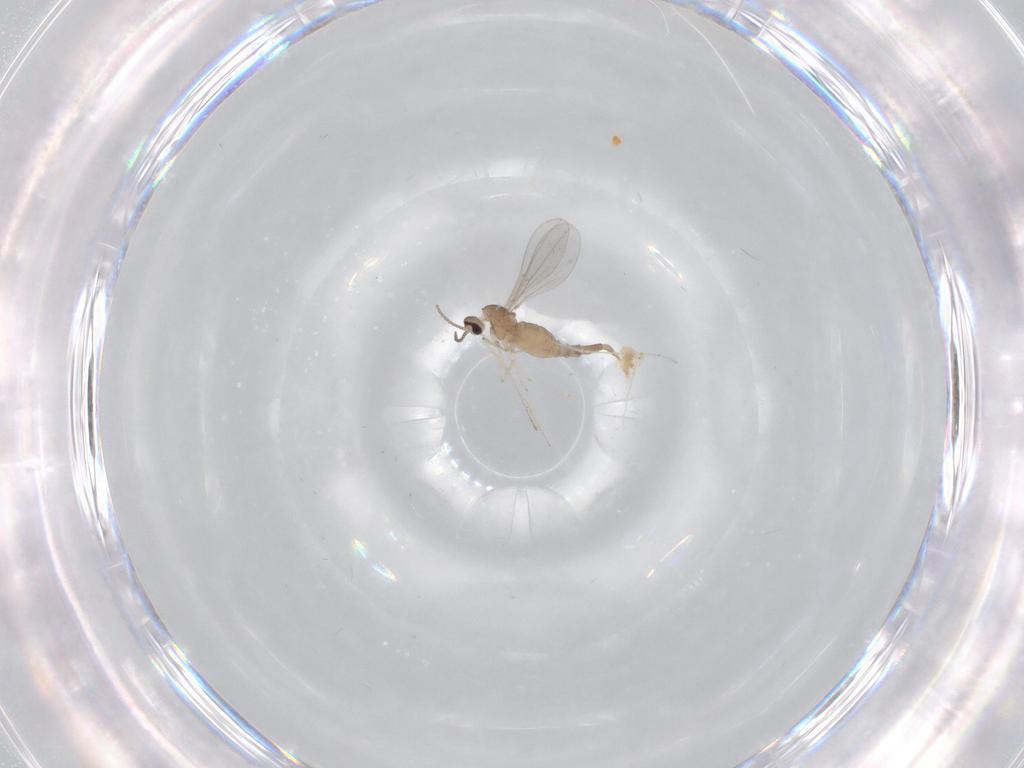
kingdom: Animalia
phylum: Arthropoda
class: Insecta
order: Diptera
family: Cecidomyiidae
